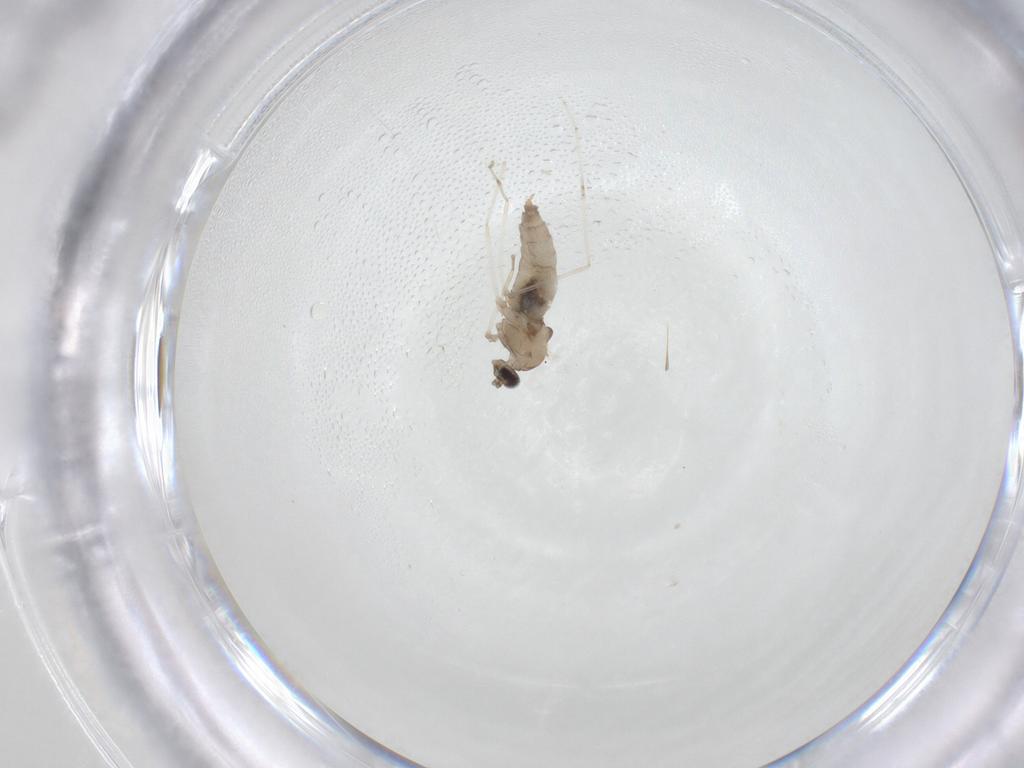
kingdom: Animalia
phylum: Arthropoda
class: Insecta
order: Diptera
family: Cecidomyiidae
